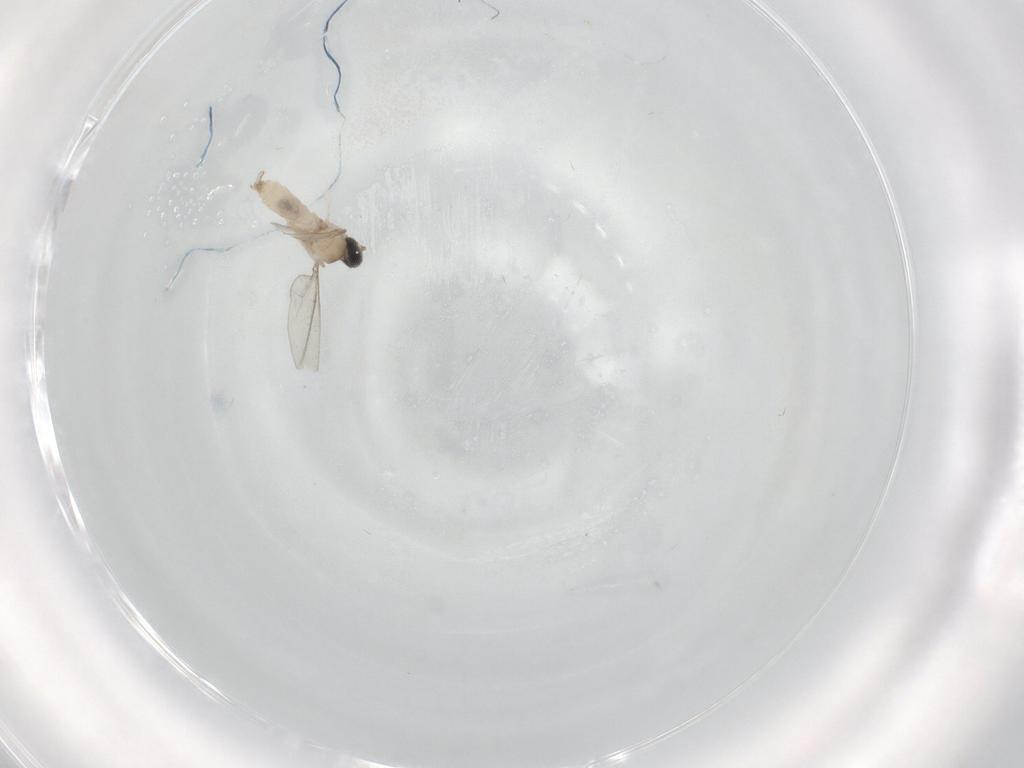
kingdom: Animalia
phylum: Arthropoda
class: Insecta
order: Diptera
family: Cecidomyiidae
